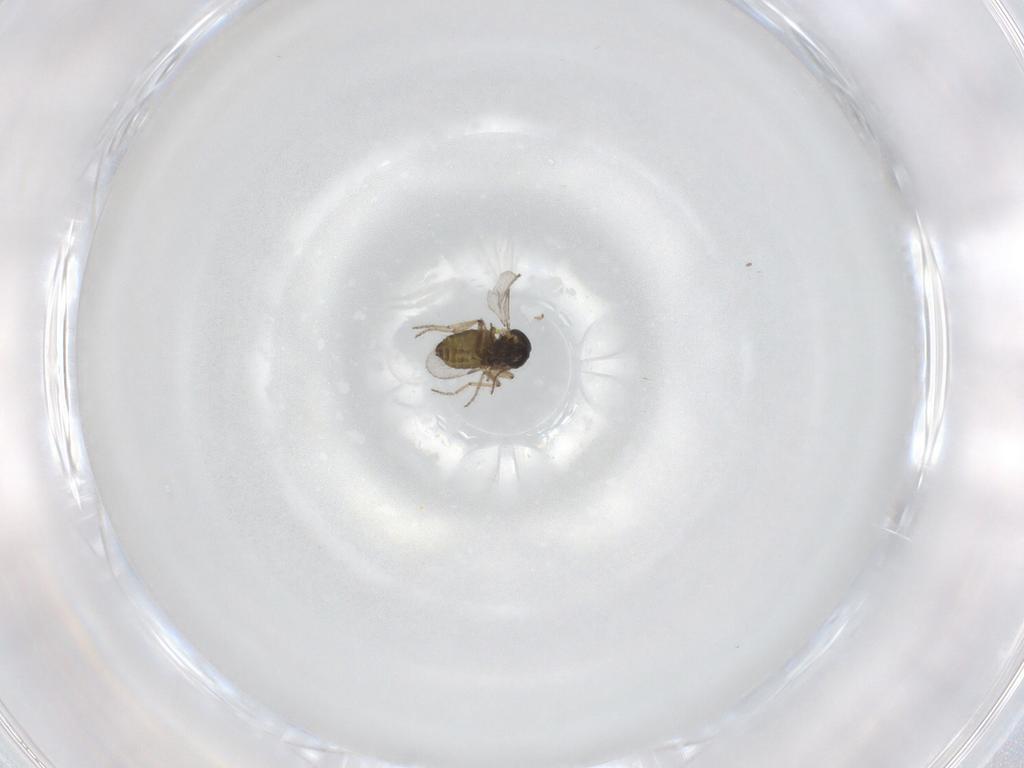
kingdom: Animalia
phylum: Arthropoda
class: Insecta
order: Diptera
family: Ceratopogonidae
